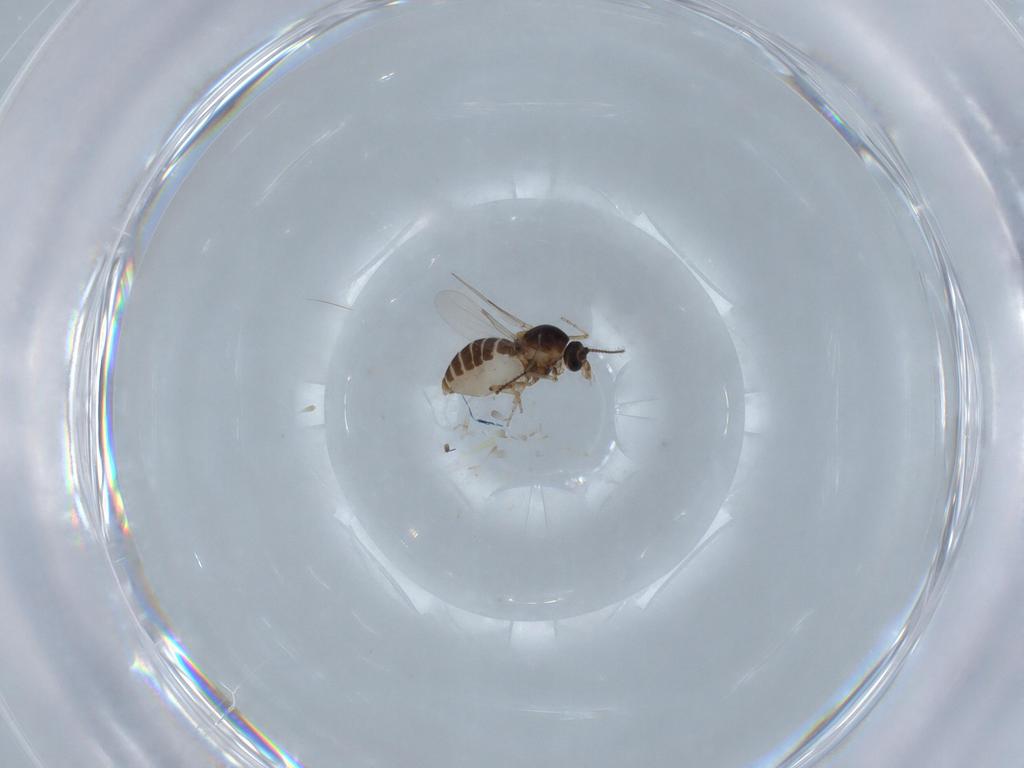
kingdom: Animalia
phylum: Arthropoda
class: Insecta
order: Diptera
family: Ceratopogonidae
